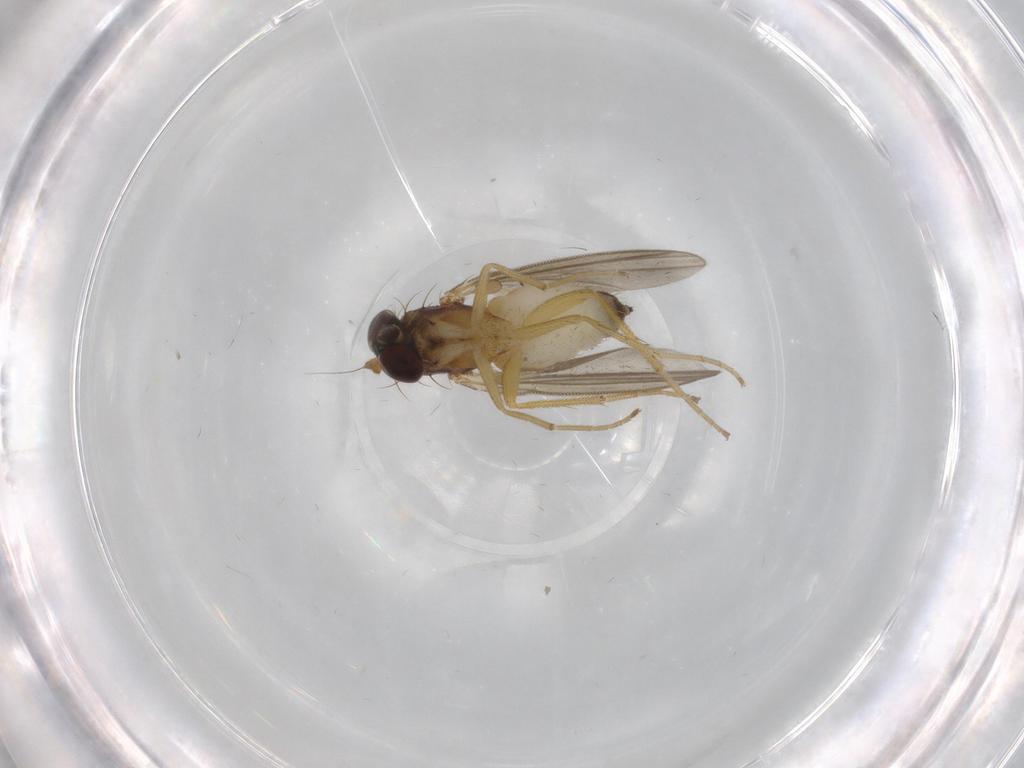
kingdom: Animalia
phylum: Arthropoda
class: Insecta
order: Diptera
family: Dolichopodidae
